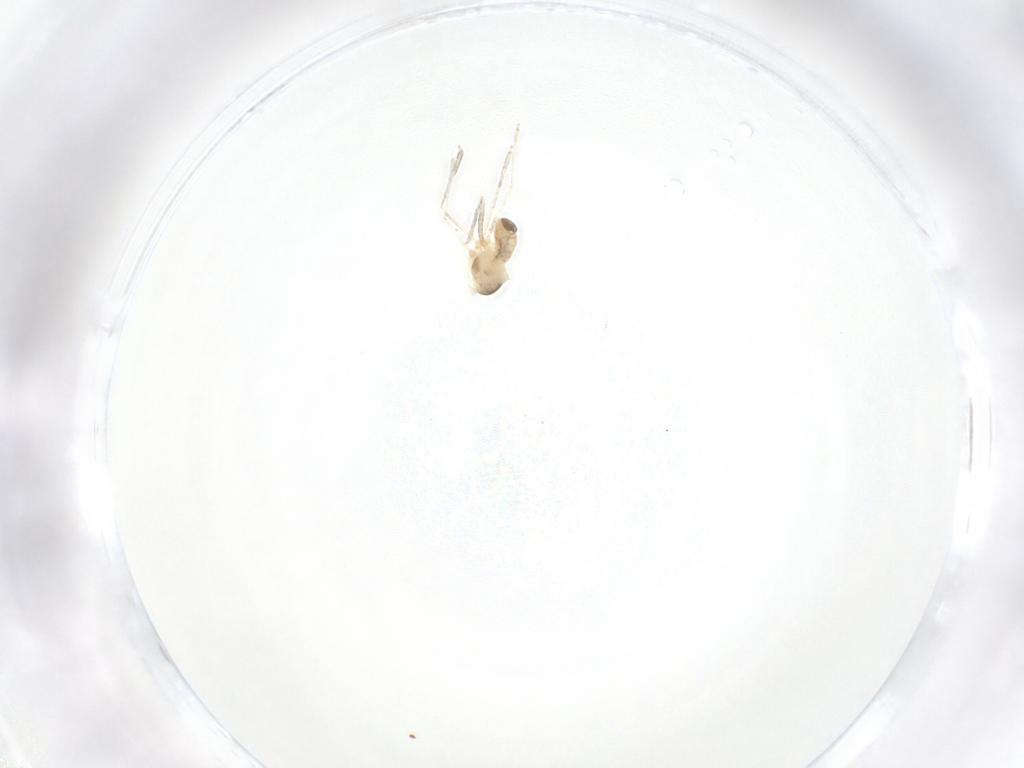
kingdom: Animalia
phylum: Arthropoda
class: Insecta
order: Diptera
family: Cecidomyiidae
